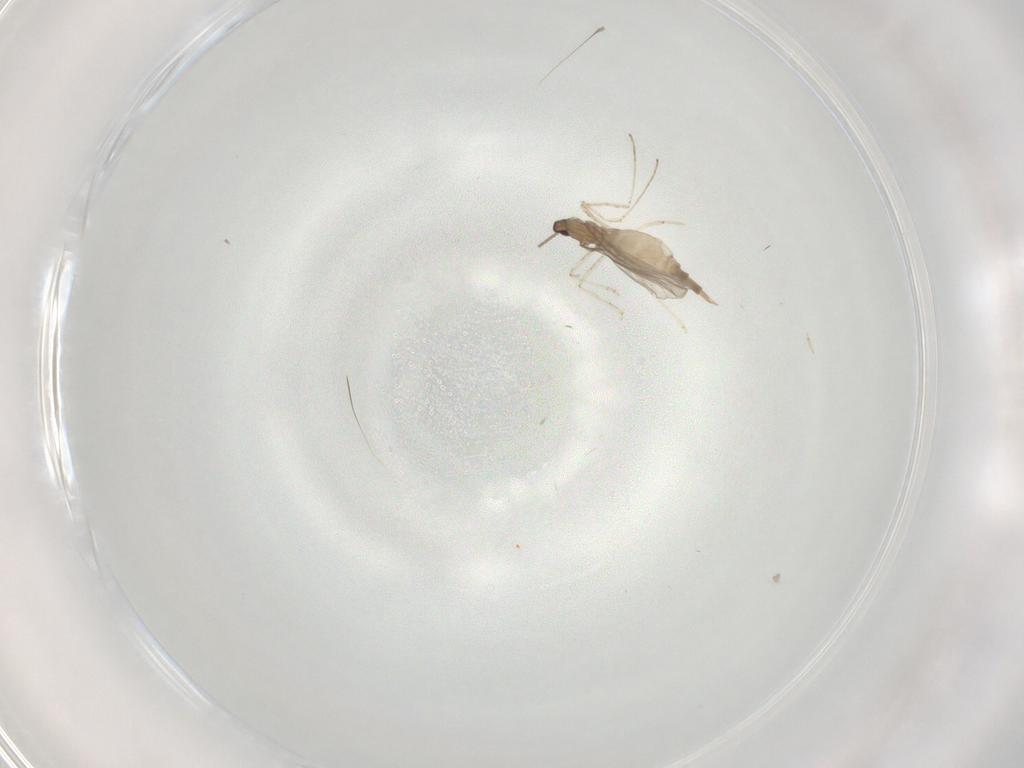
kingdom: Animalia
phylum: Arthropoda
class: Insecta
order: Diptera
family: Cecidomyiidae
